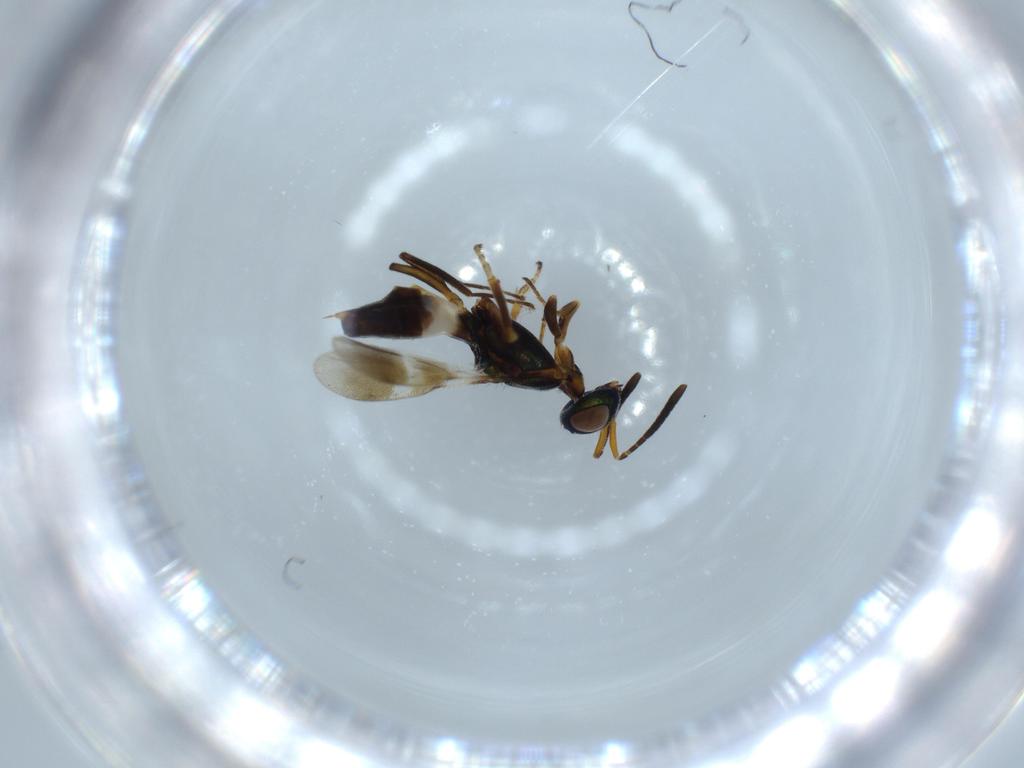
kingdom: Animalia
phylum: Arthropoda
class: Insecta
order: Hymenoptera
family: Eupelmidae
